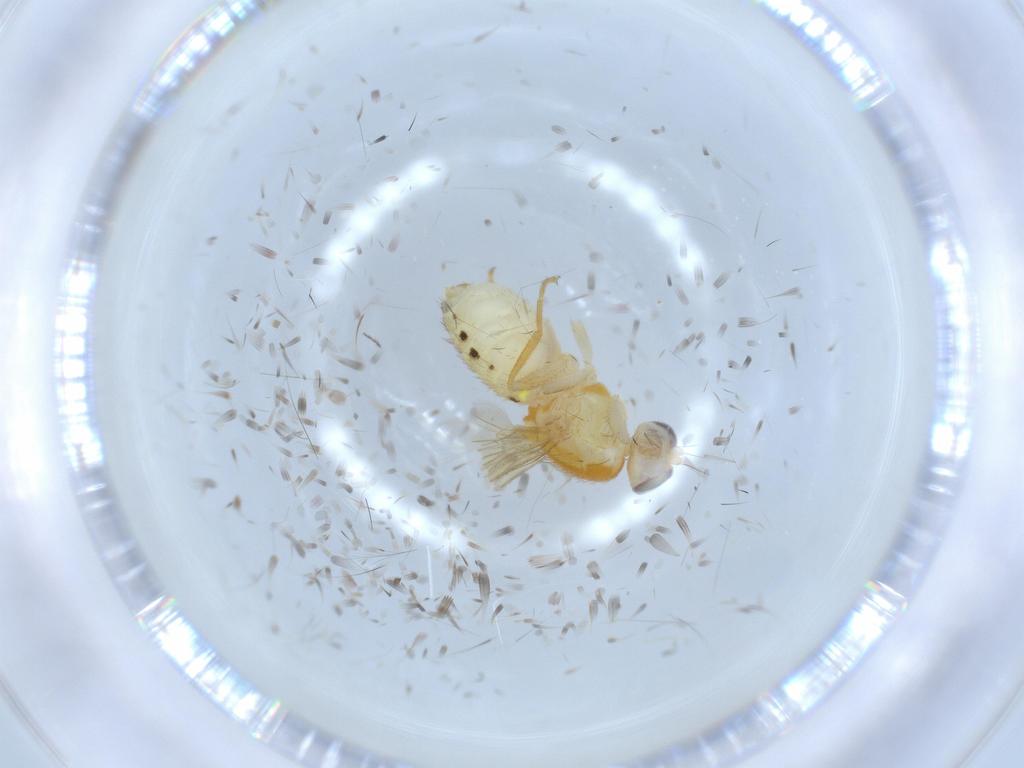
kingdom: Animalia
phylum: Arthropoda
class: Insecta
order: Diptera
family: Chyromyidae
